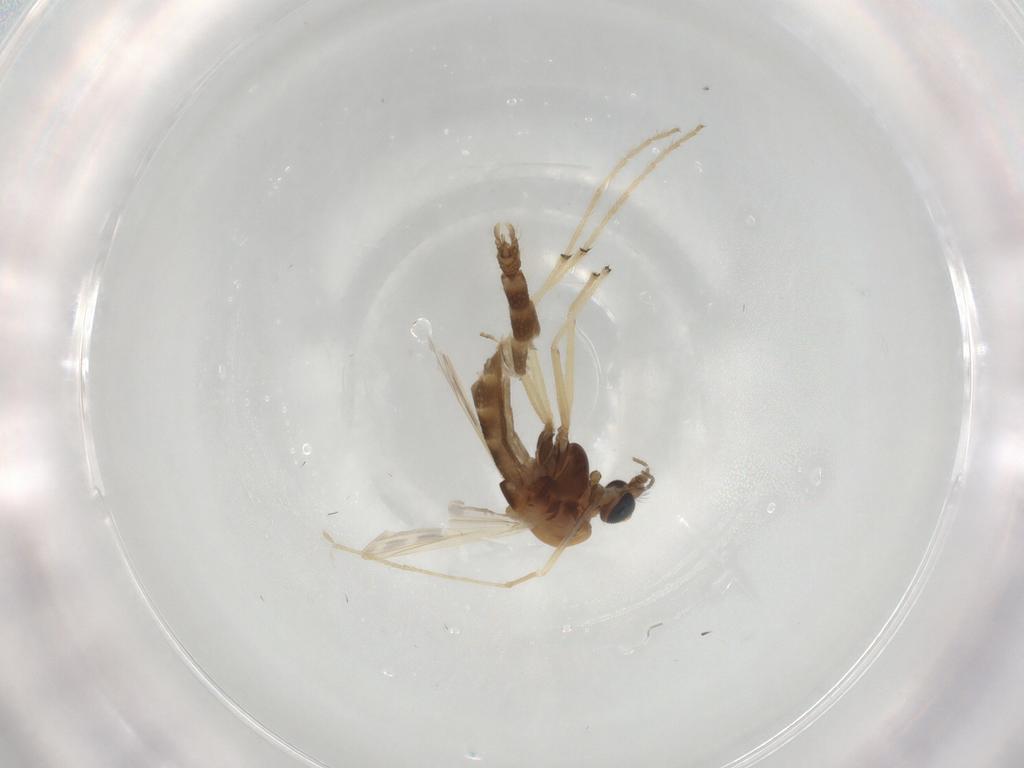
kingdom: Animalia
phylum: Arthropoda
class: Insecta
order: Diptera
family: Chironomidae
